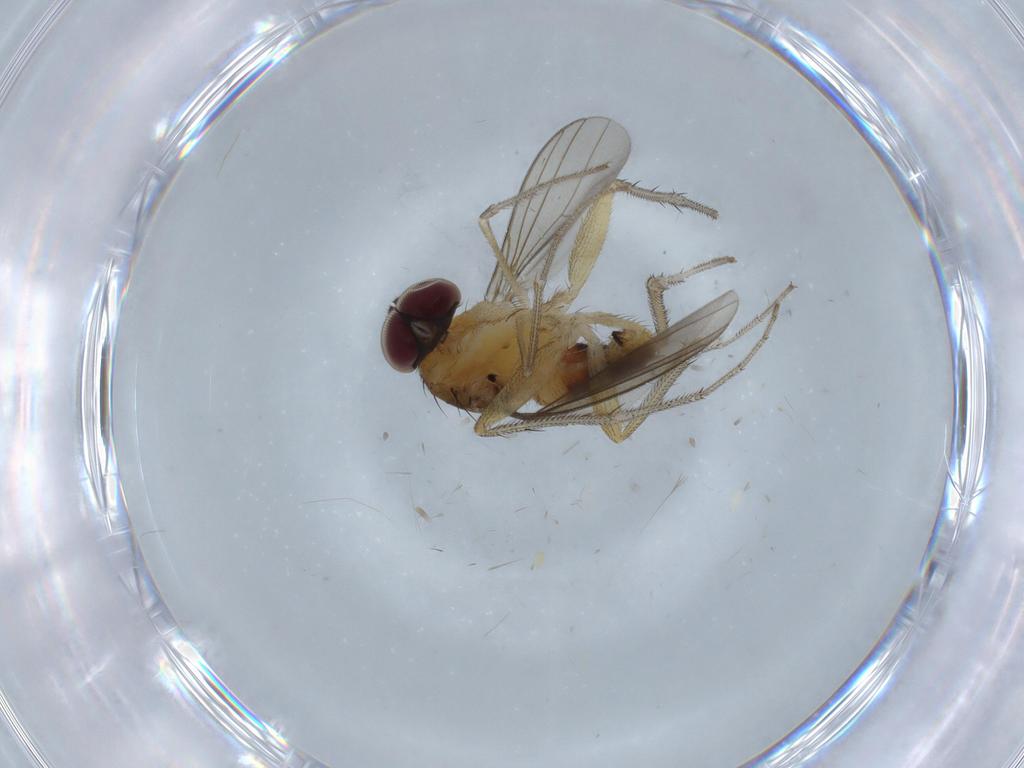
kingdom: Animalia
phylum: Arthropoda
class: Insecta
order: Diptera
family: Dolichopodidae
